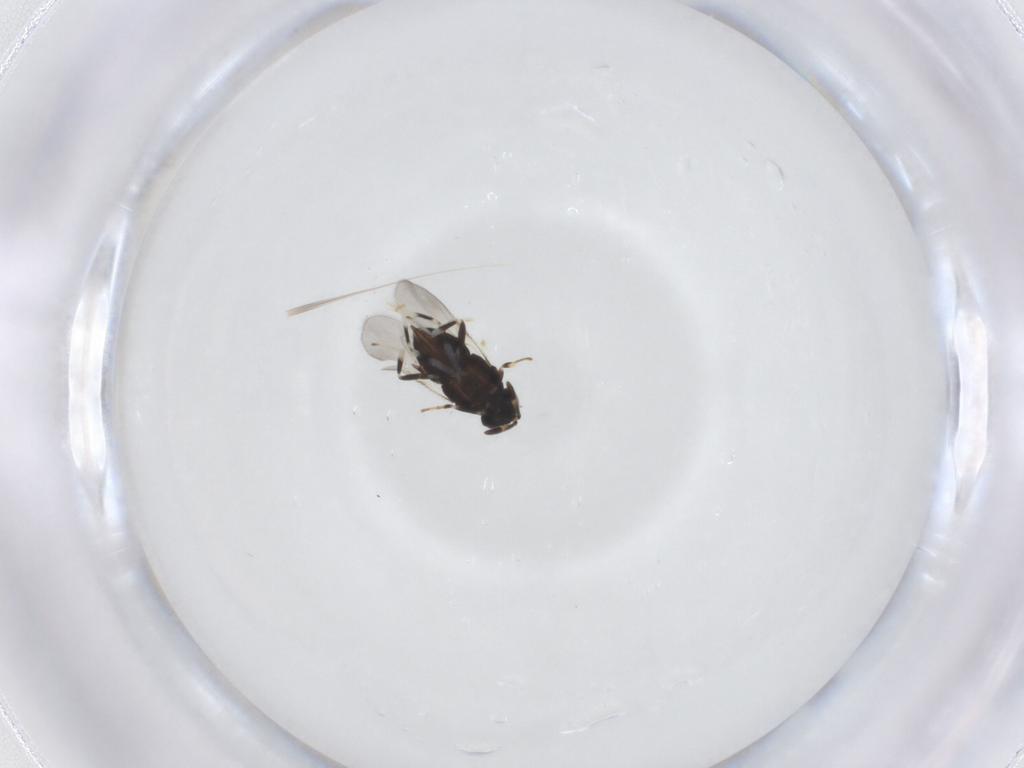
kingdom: Animalia
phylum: Arthropoda
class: Insecta
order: Hymenoptera
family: Encyrtidae
